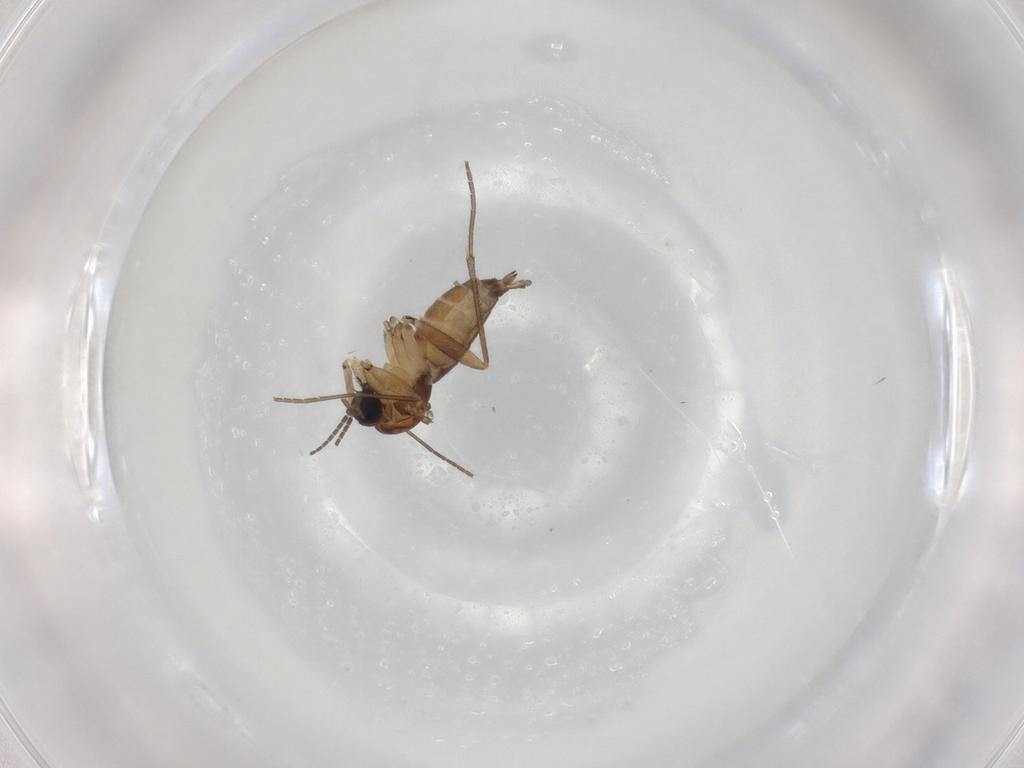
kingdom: Animalia
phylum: Arthropoda
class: Insecta
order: Diptera
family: Sciaridae
